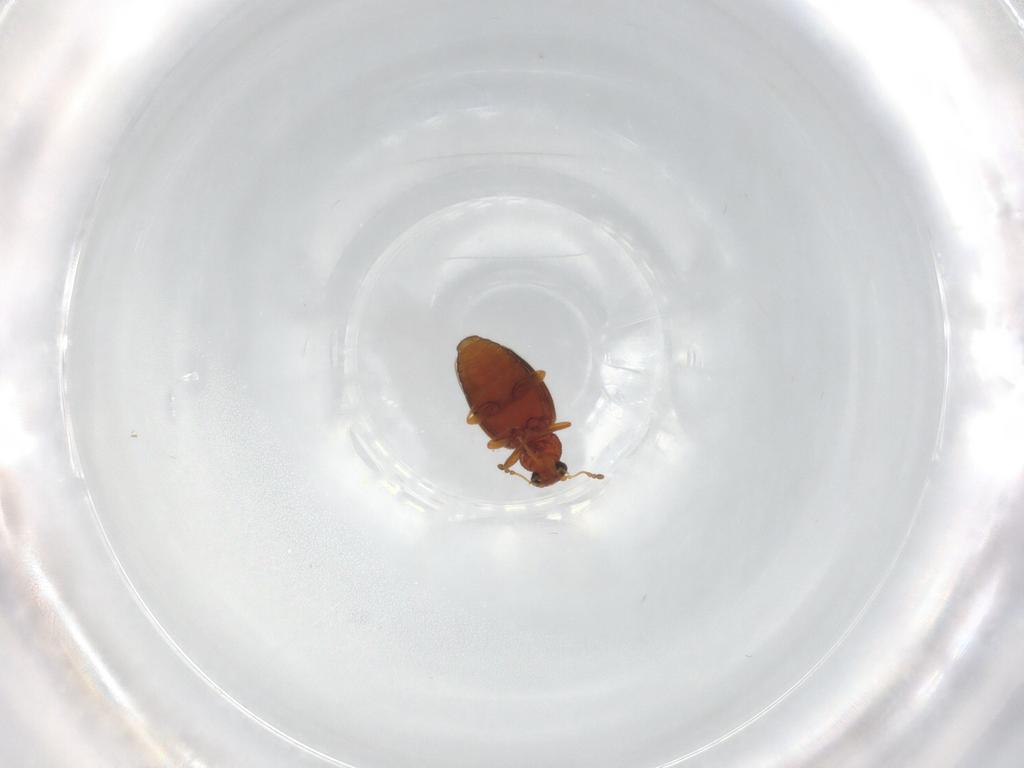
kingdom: Animalia
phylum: Arthropoda
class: Insecta
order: Coleoptera
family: Latridiidae
